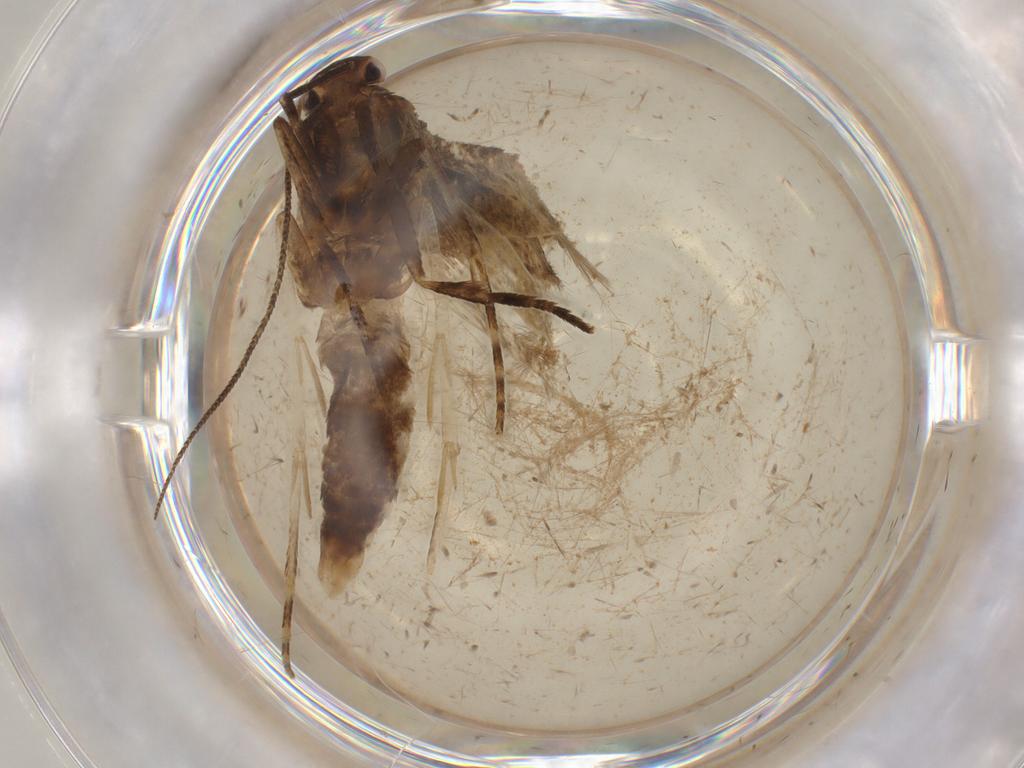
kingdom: Animalia
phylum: Arthropoda
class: Insecta
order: Lepidoptera
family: Momphidae
